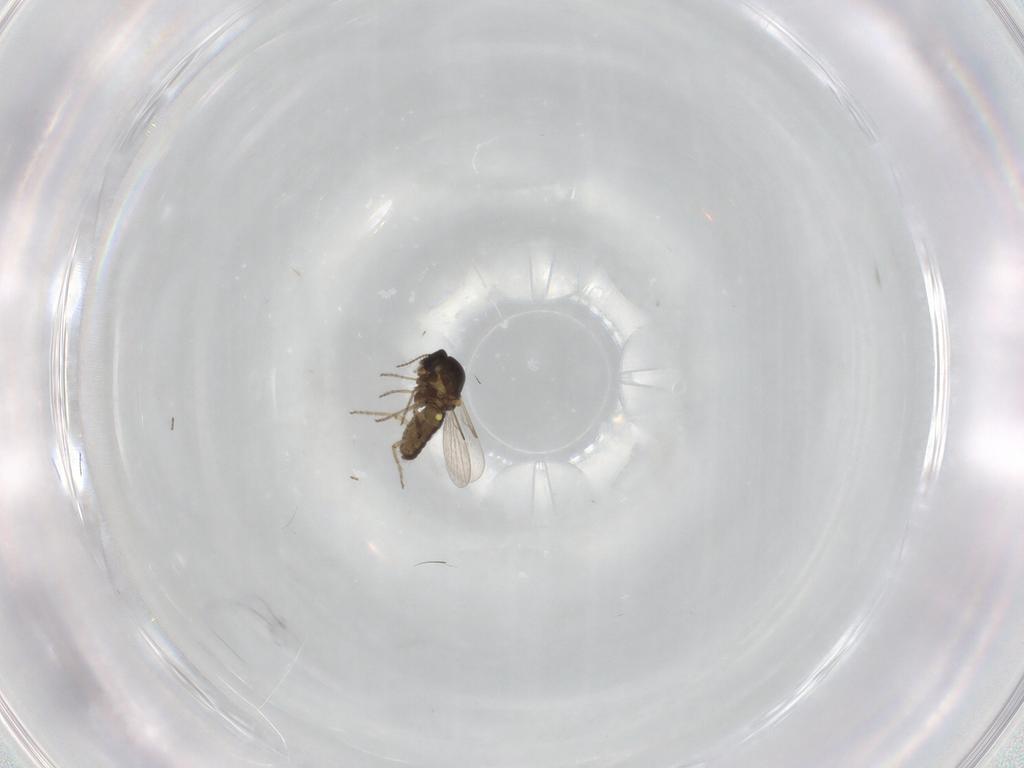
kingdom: Animalia
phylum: Arthropoda
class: Insecta
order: Diptera
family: Ceratopogonidae
